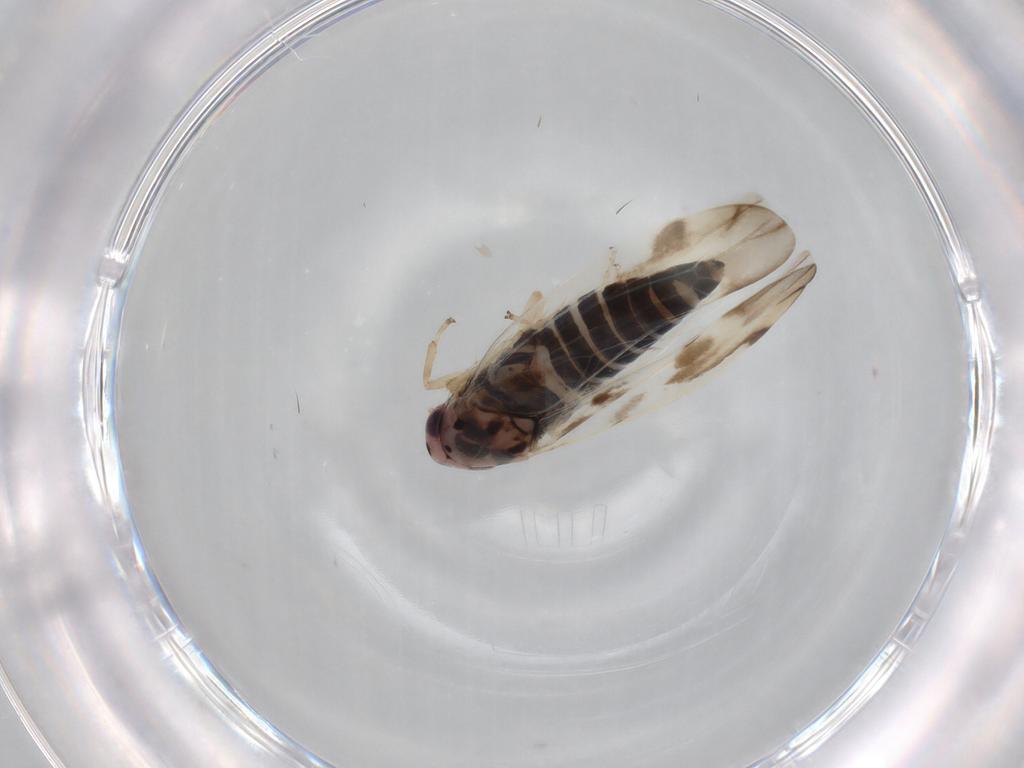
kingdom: Animalia
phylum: Arthropoda
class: Insecta
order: Hemiptera
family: Cicadellidae
